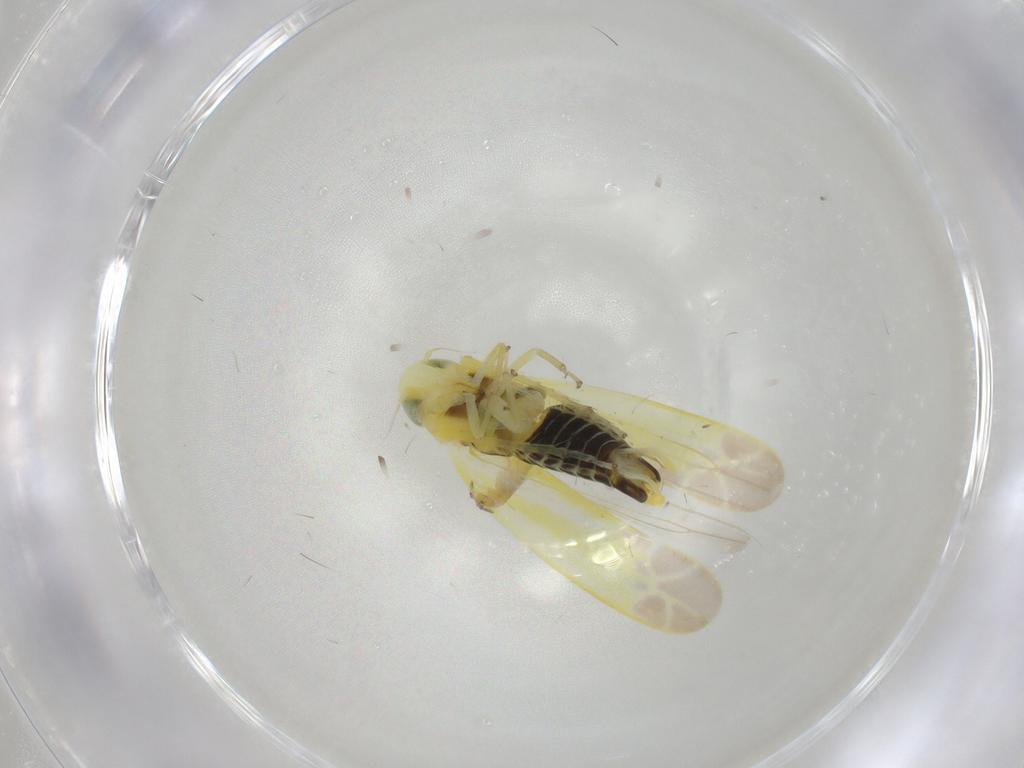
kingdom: Animalia
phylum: Arthropoda
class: Insecta
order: Hemiptera
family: Cicadellidae
